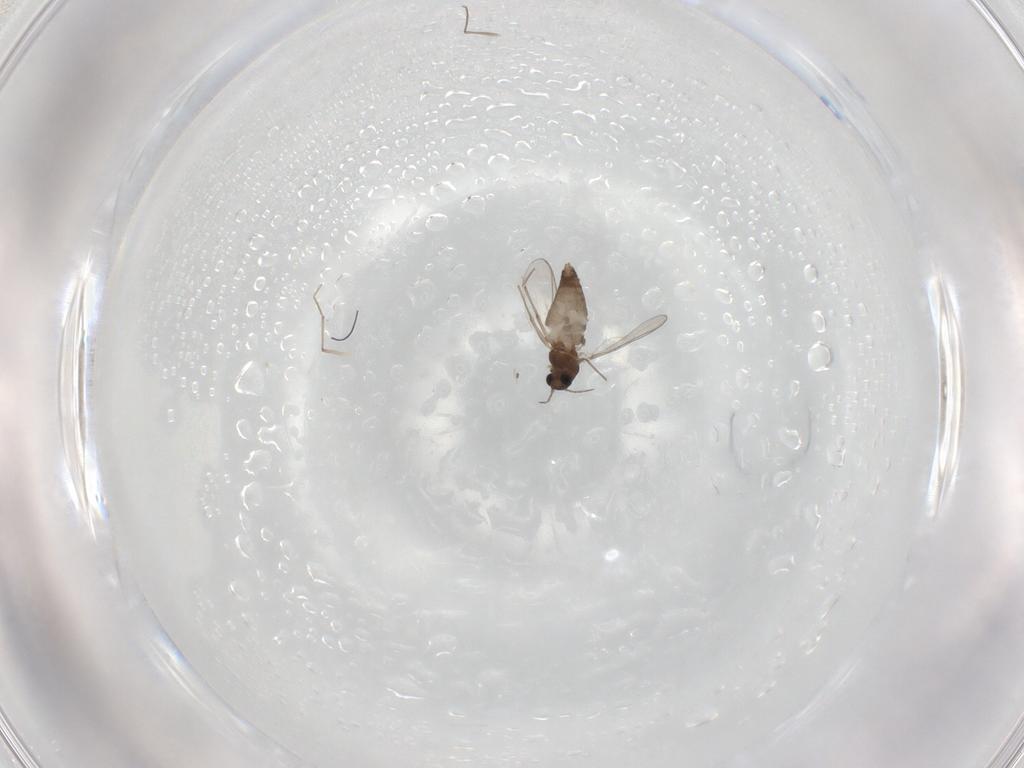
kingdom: Animalia
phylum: Arthropoda
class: Insecta
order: Diptera
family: Chironomidae
